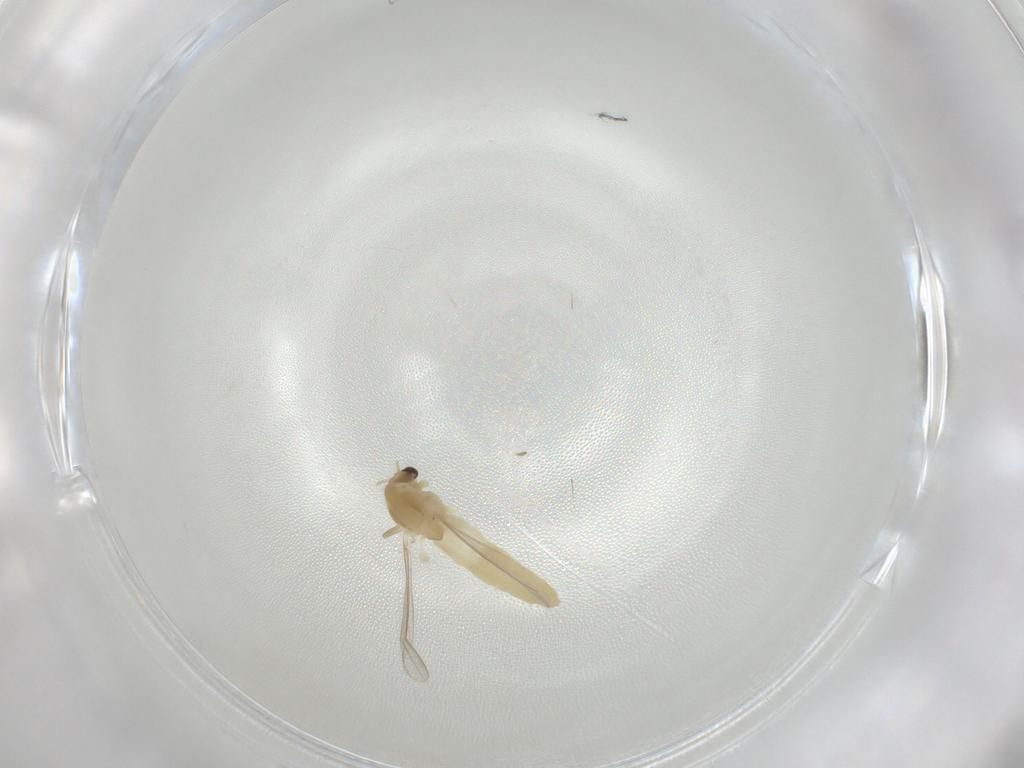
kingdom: Animalia
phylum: Arthropoda
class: Insecta
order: Diptera
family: Chironomidae
